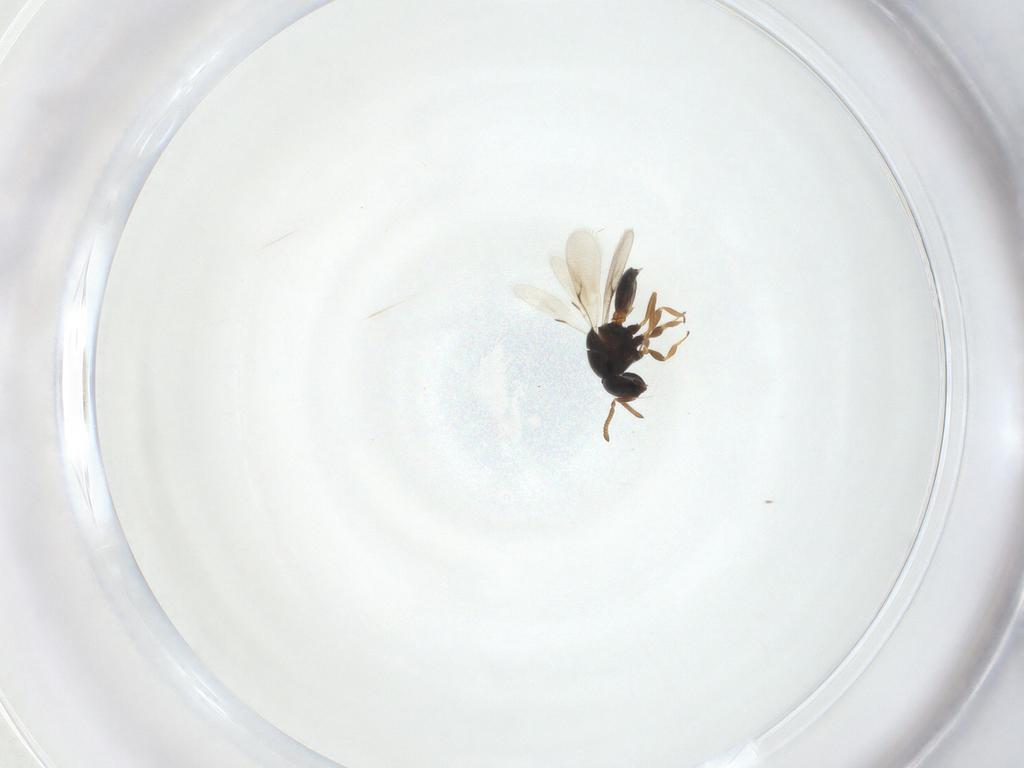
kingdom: Animalia
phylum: Arthropoda
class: Insecta
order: Hymenoptera
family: Scelionidae
